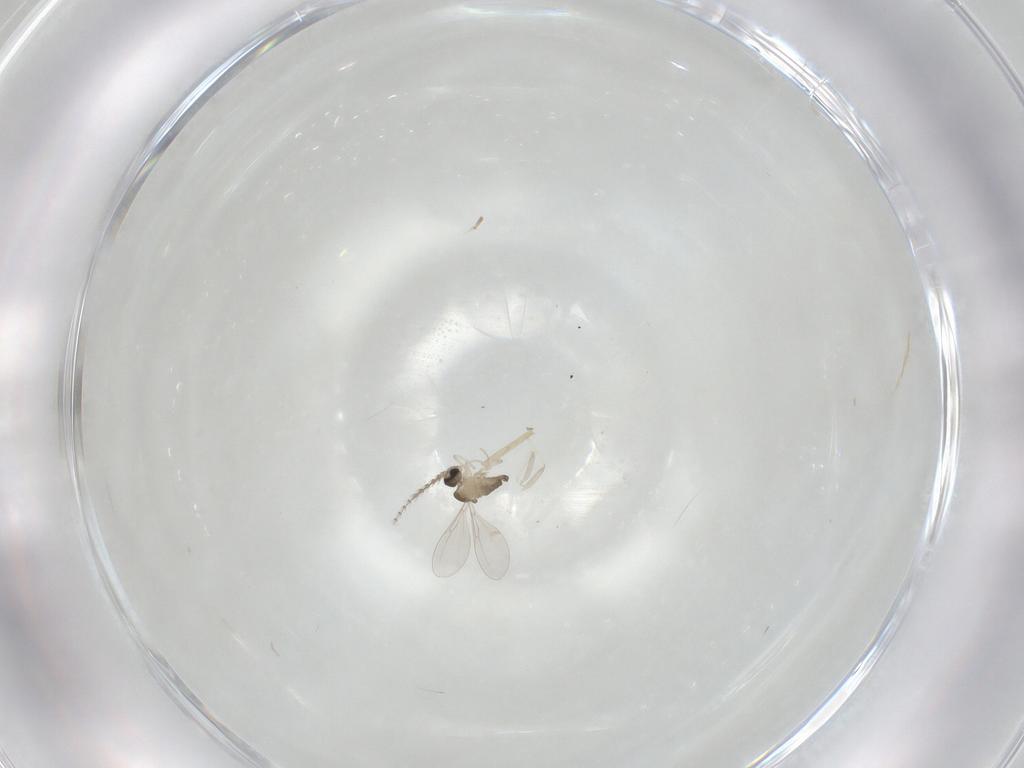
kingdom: Animalia
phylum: Arthropoda
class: Insecta
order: Diptera
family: Cecidomyiidae
